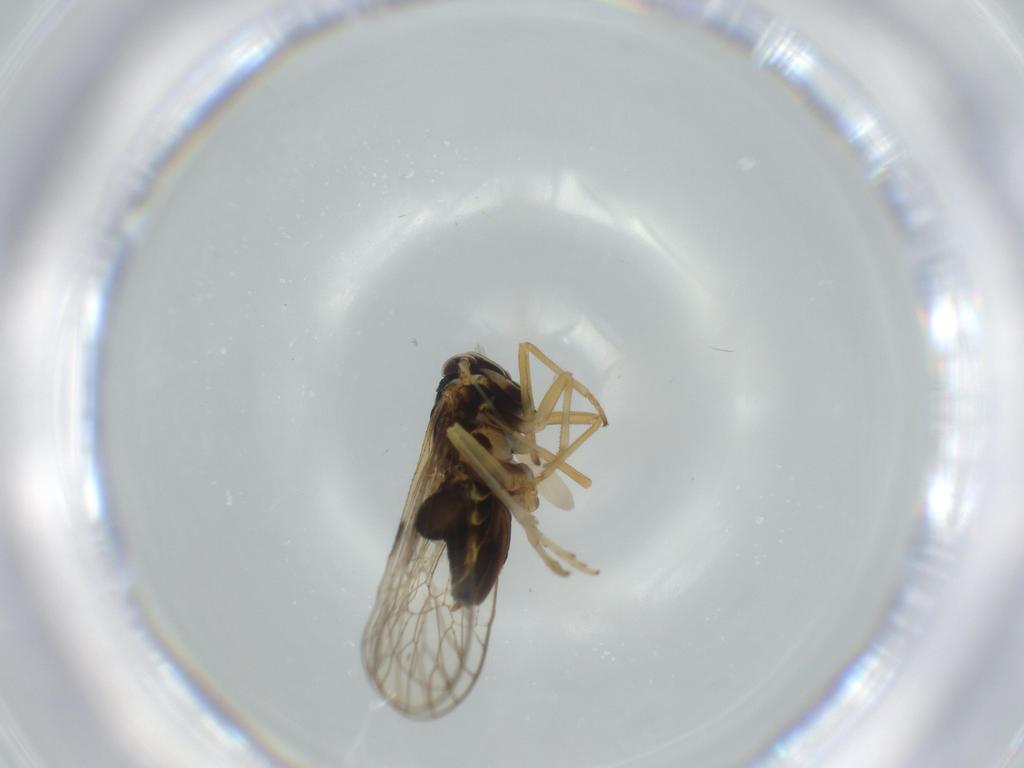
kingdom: Animalia
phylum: Arthropoda
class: Insecta
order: Hemiptera
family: Cicadellidae
